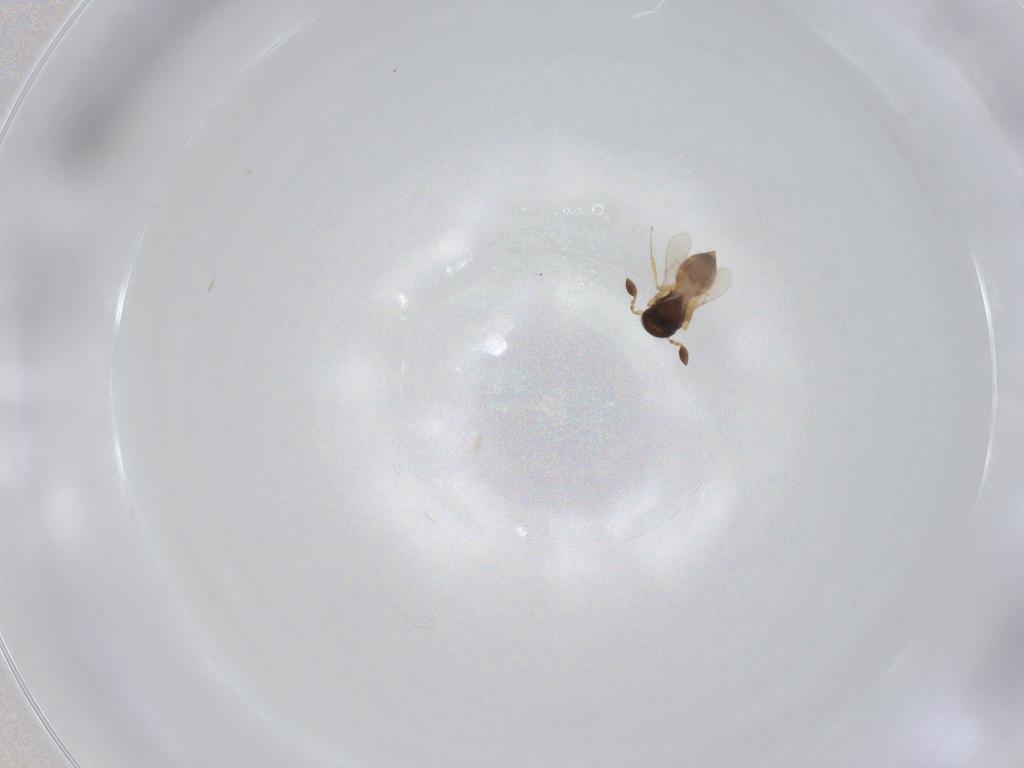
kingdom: Animalia
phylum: Arthropoda
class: Insecta
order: Hymenoptera
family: Scelionidae
